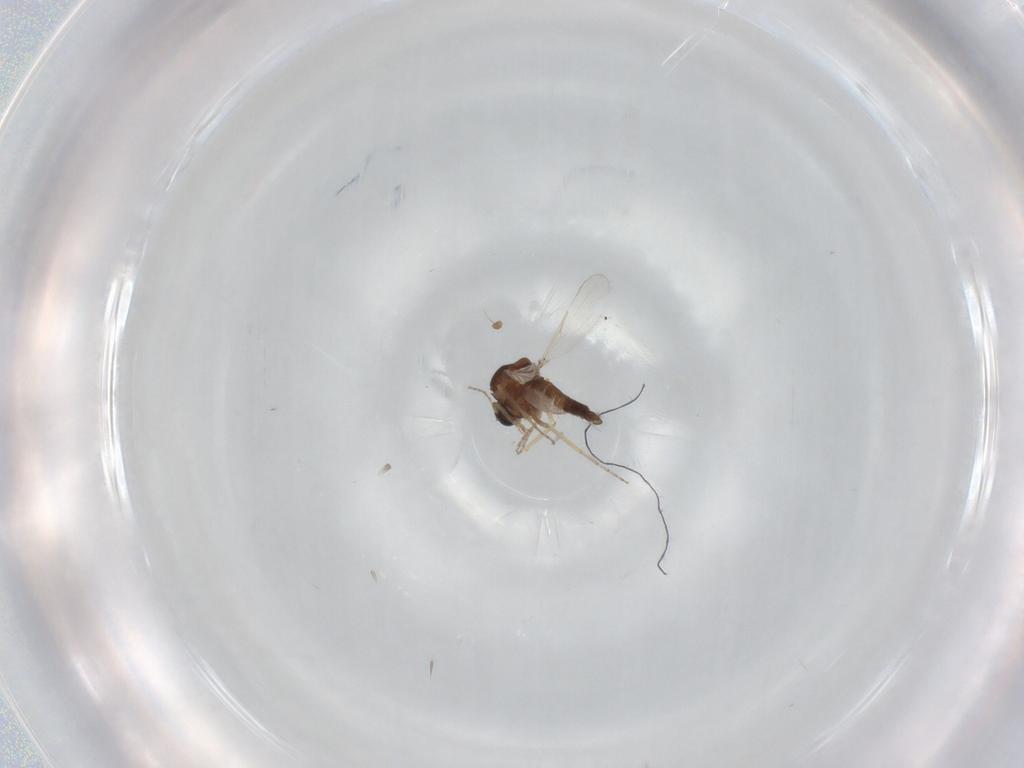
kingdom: Animalia
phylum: Arthropoda
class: Insecta
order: Diptera
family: Ceratopogonidae
